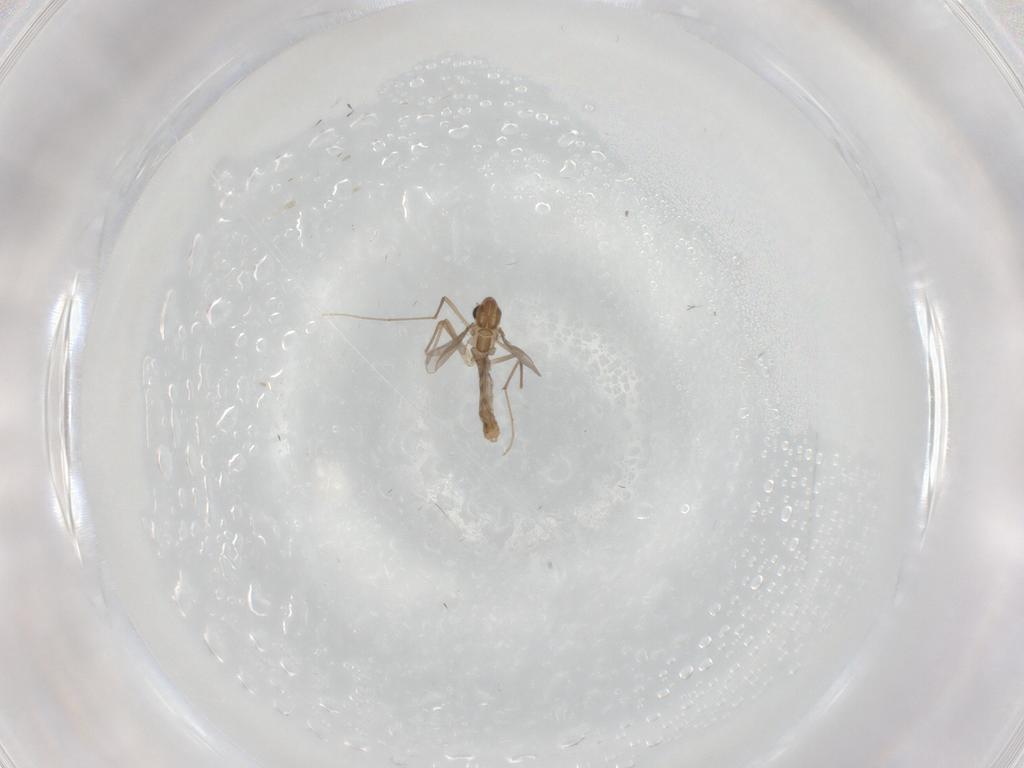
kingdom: Animalia
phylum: Arthropoda
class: Insecta
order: Diptera
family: Chironomidae
